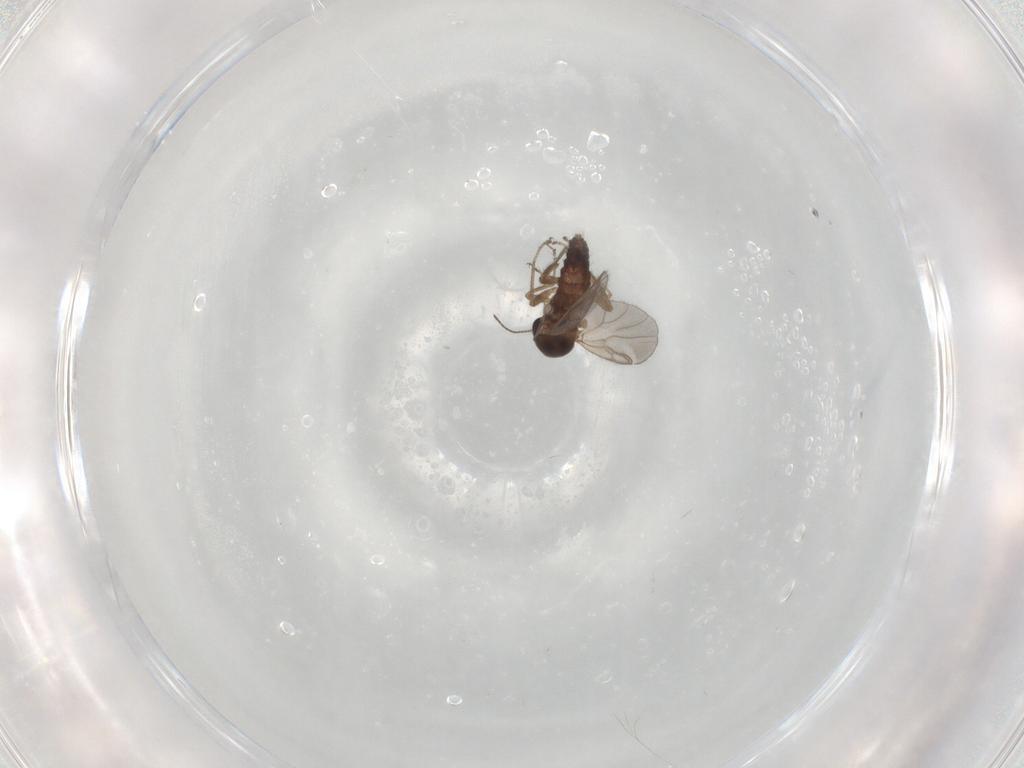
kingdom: Animalia
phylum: Arthropoda
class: Insecta
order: Diptera
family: Ceratopogonidae
